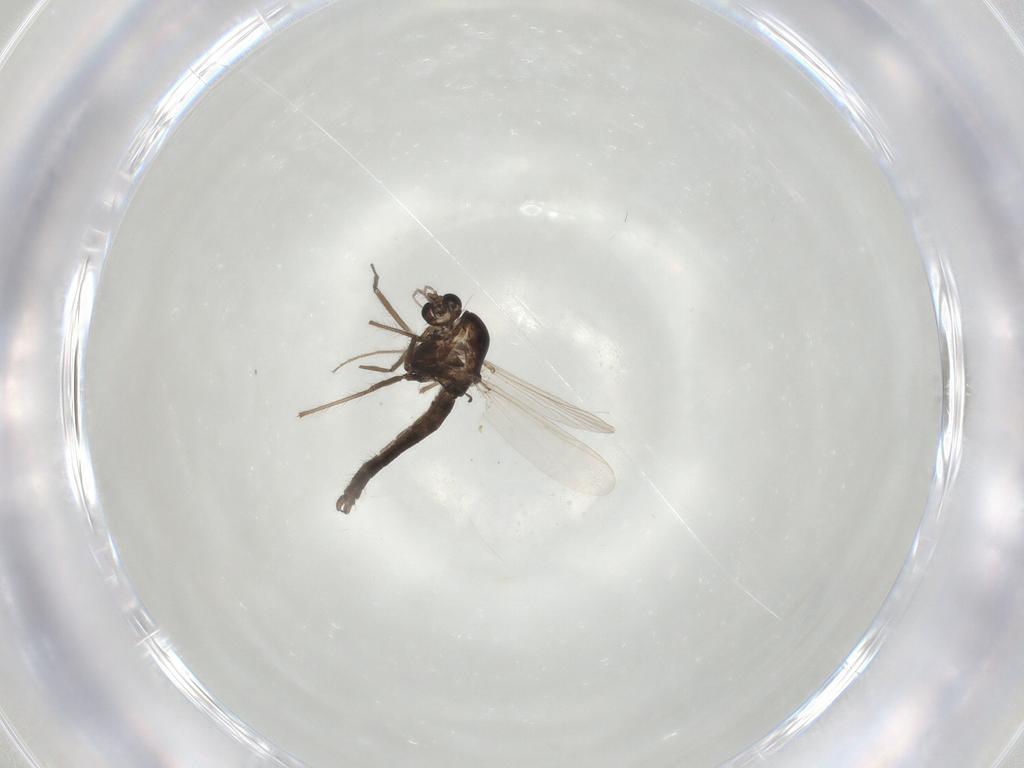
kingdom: Animalia
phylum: Arthropoda
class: Insecta
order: Diptera
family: Chironomidae
